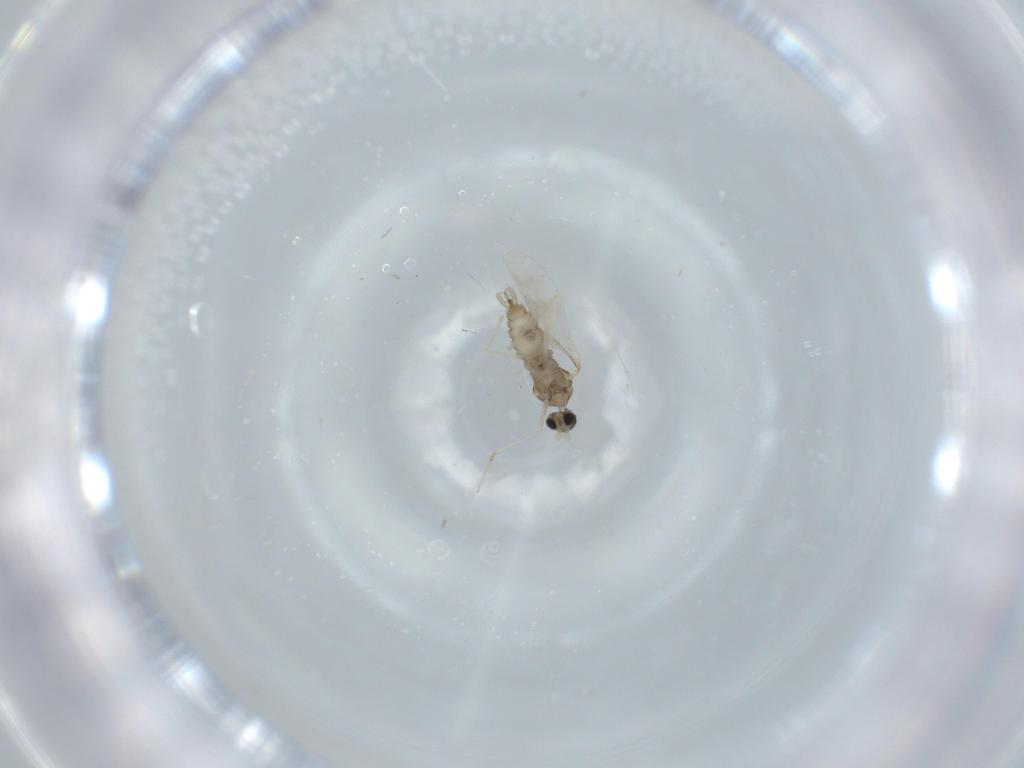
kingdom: Animalia
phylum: Arthropoda
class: Insecta
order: Diptera
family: Cecidomyiidae
